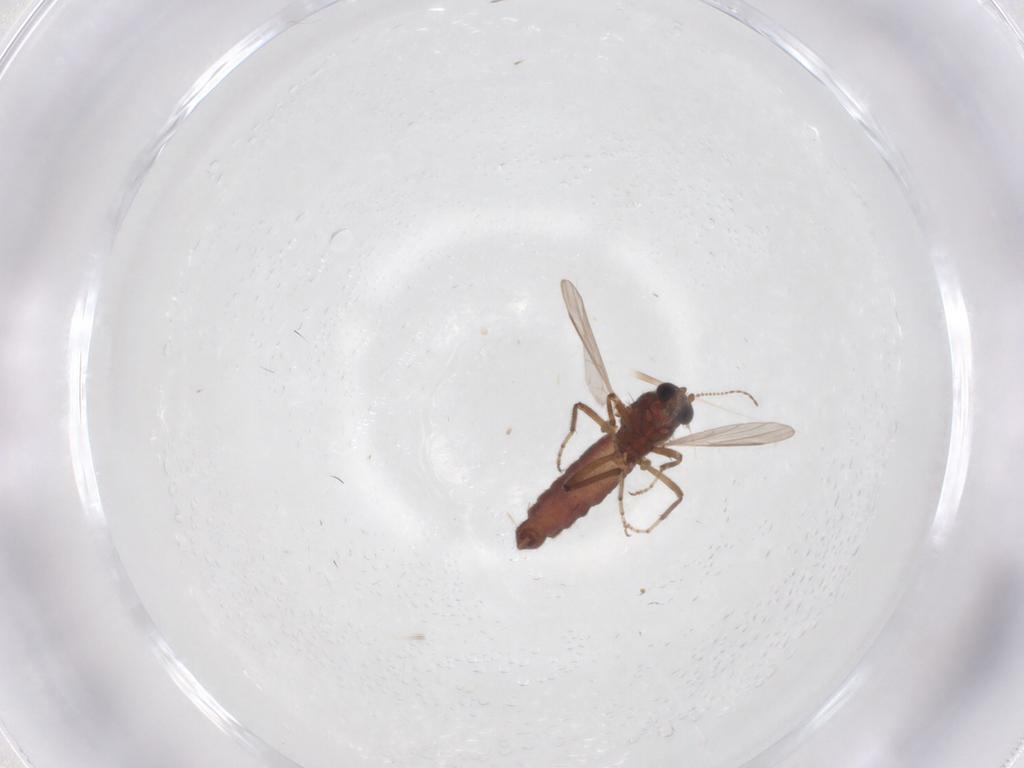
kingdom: Animalia
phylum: Arthropoda
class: Insecta
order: Diptera
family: Ceratopogonidae
